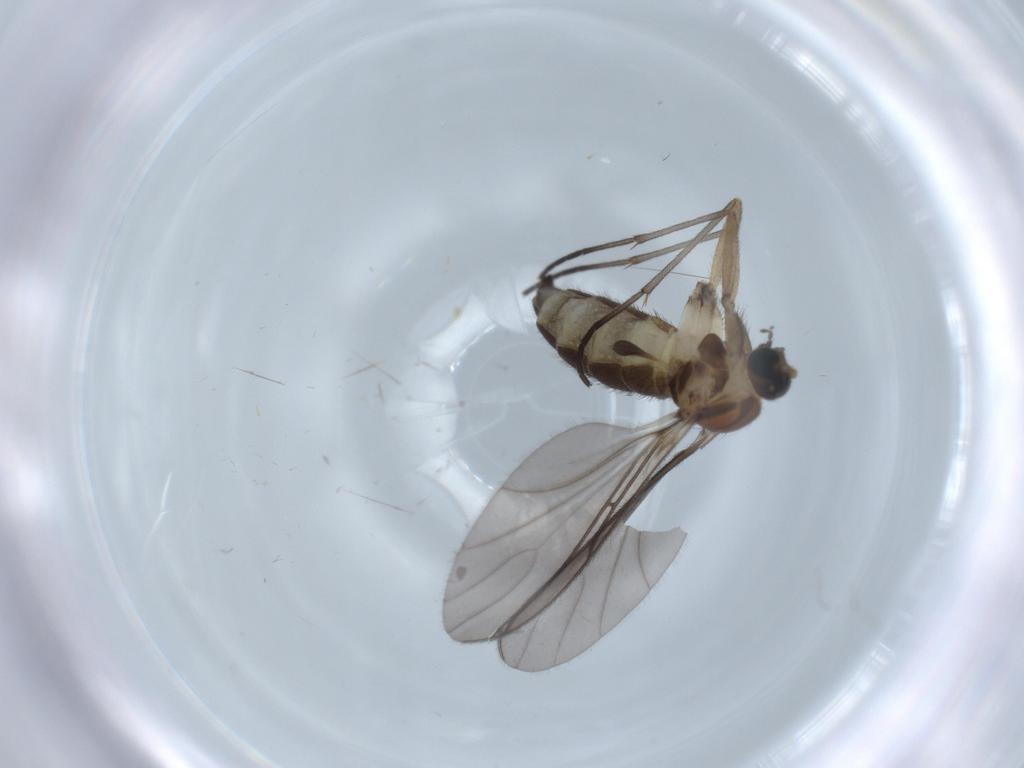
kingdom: Animalia
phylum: Arthropoda
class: Insecta
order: Diptera
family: Sciaridae
